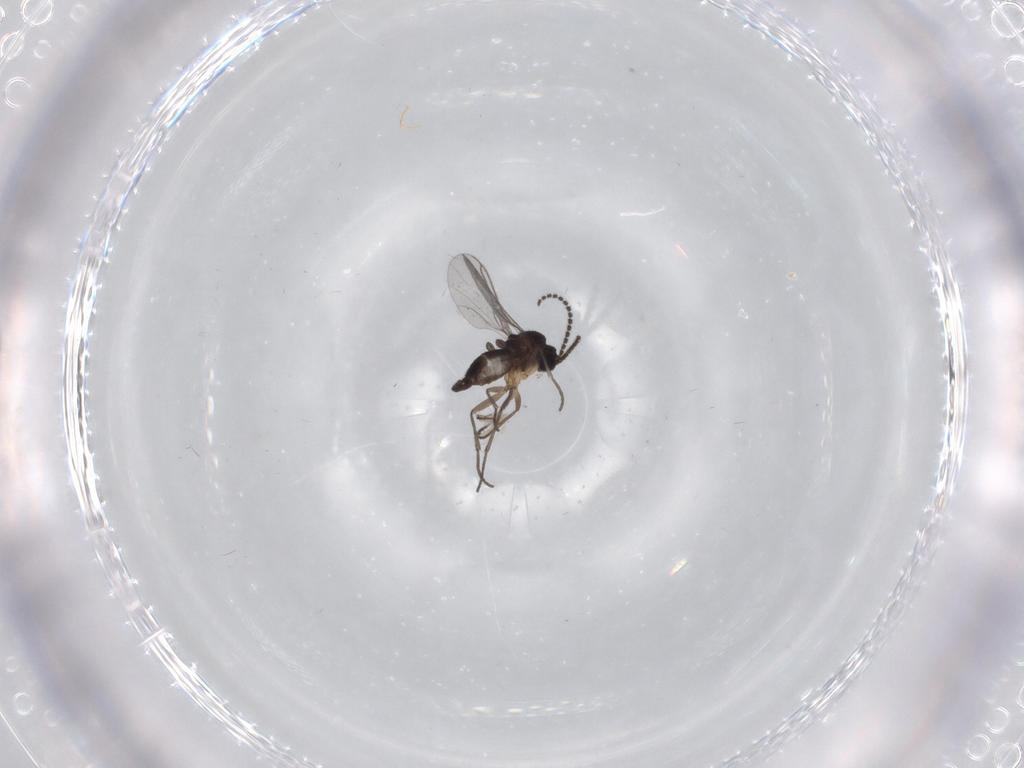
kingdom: Animalia
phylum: Arthropoda
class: Insecta
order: Diptera
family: Sciaridae
